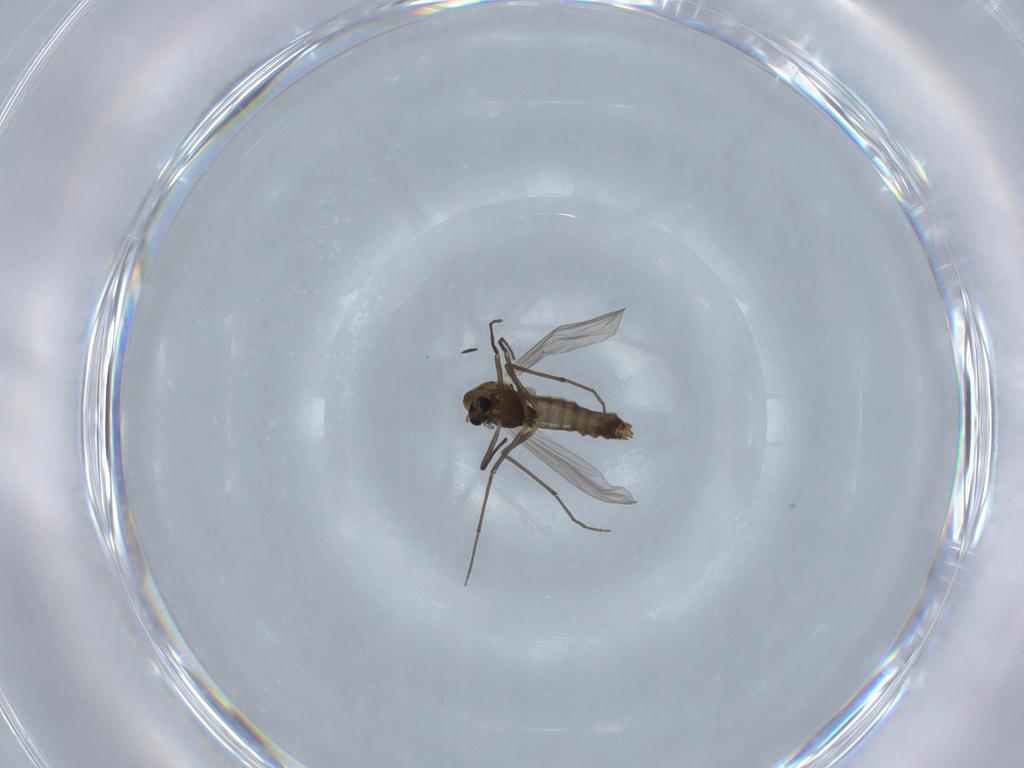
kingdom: Animalia
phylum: Arthropoda
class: Insecta
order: Diptera
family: Chironomidae
